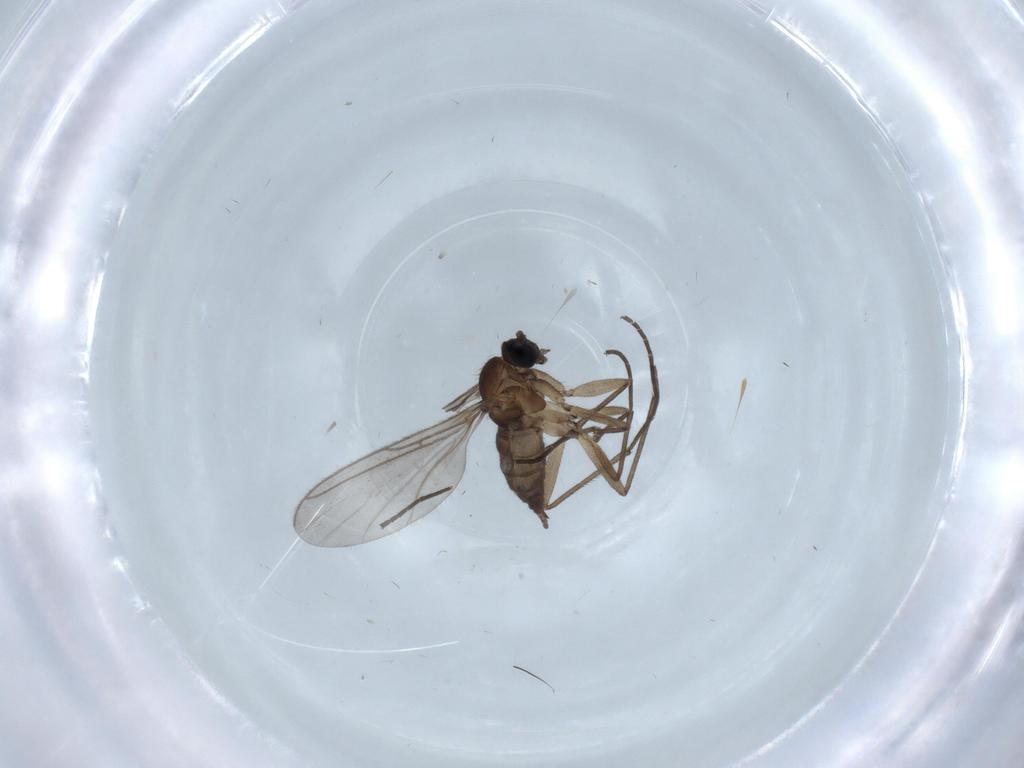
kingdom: Animalia
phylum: Arthropoda
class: Insecta
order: Diptera
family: Sciaridae
